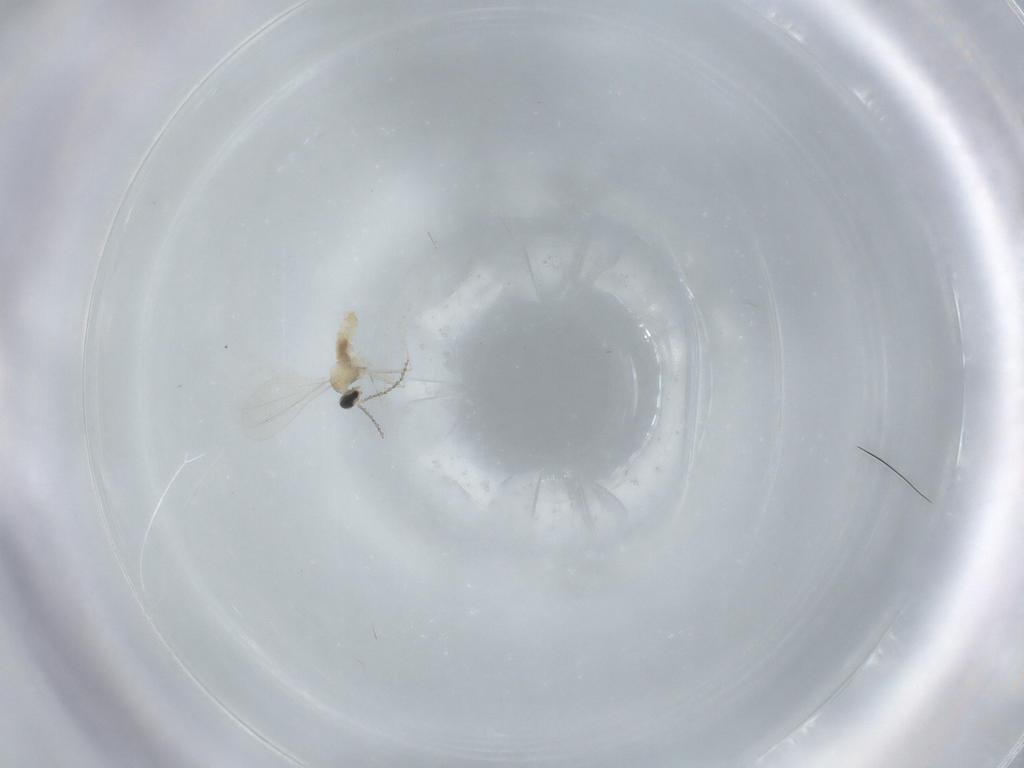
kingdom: Animalia
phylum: Arthropoda
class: Insecta
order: Diptera
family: Cecidomyiidae
